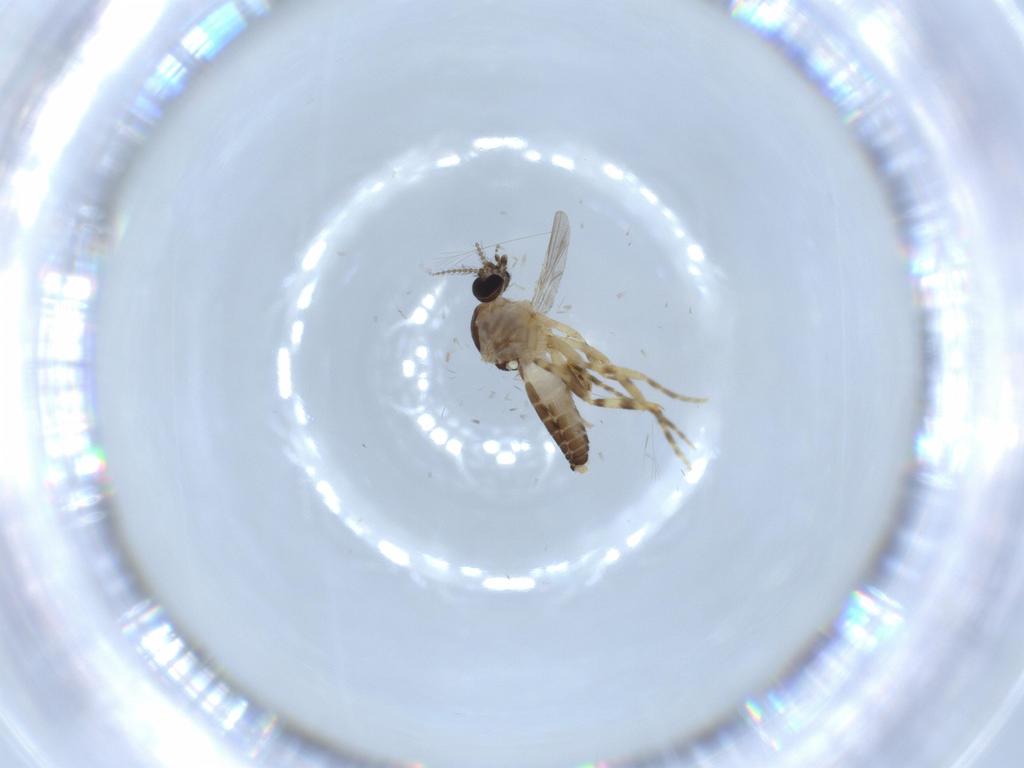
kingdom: Animalia
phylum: Arthropoda
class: Insecta
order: Diptera
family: Ceratopogonidae
